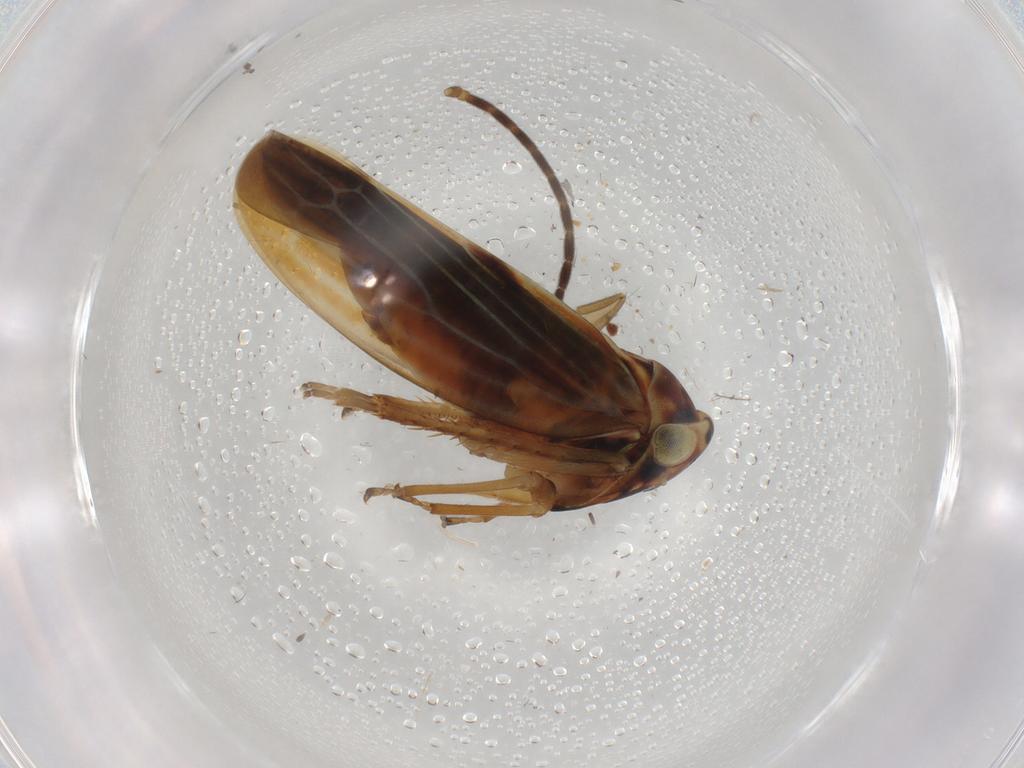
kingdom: Animalia
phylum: Arthropoda
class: Insecta
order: Hemiptera
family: Cicadellidae
